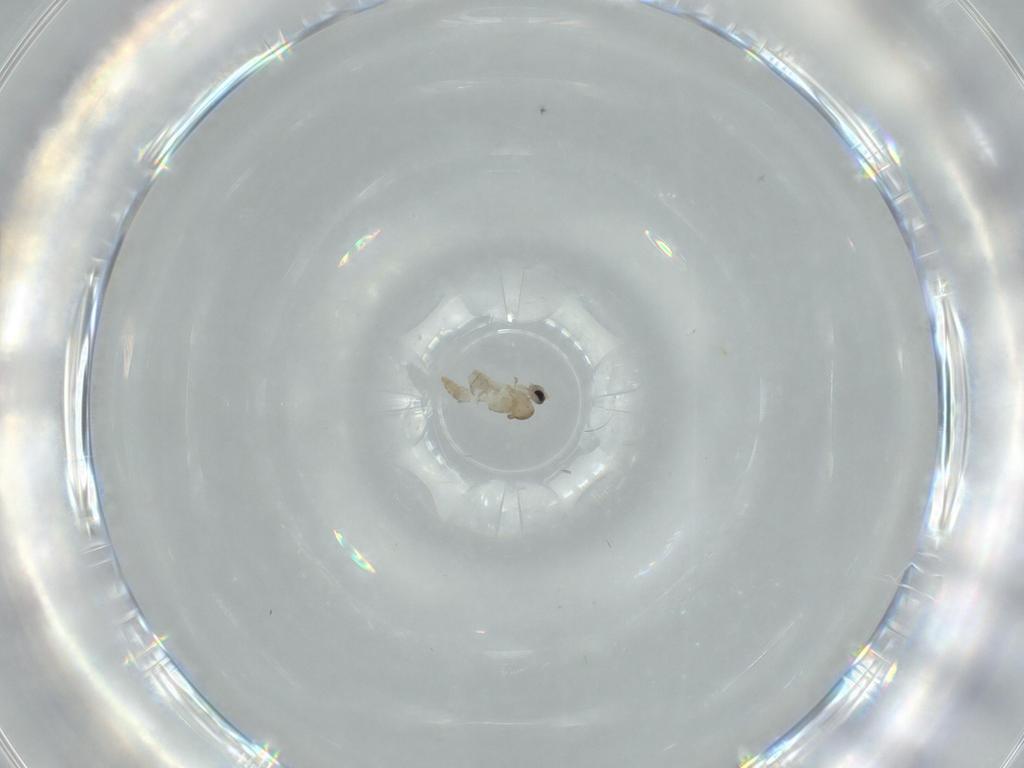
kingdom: Animalia
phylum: Arthropoda
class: Insecta
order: Diptera
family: Cecidomyiidae
